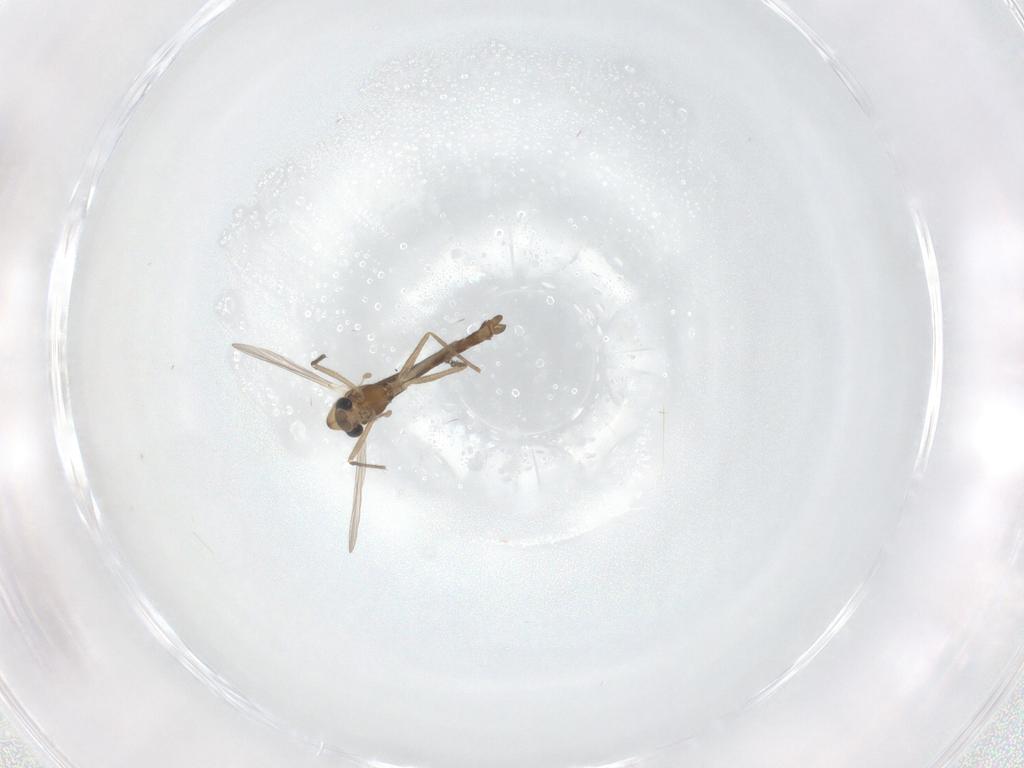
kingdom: Animalia
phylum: Arthropoda
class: Insecta
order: Diptera
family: Chironomidae
